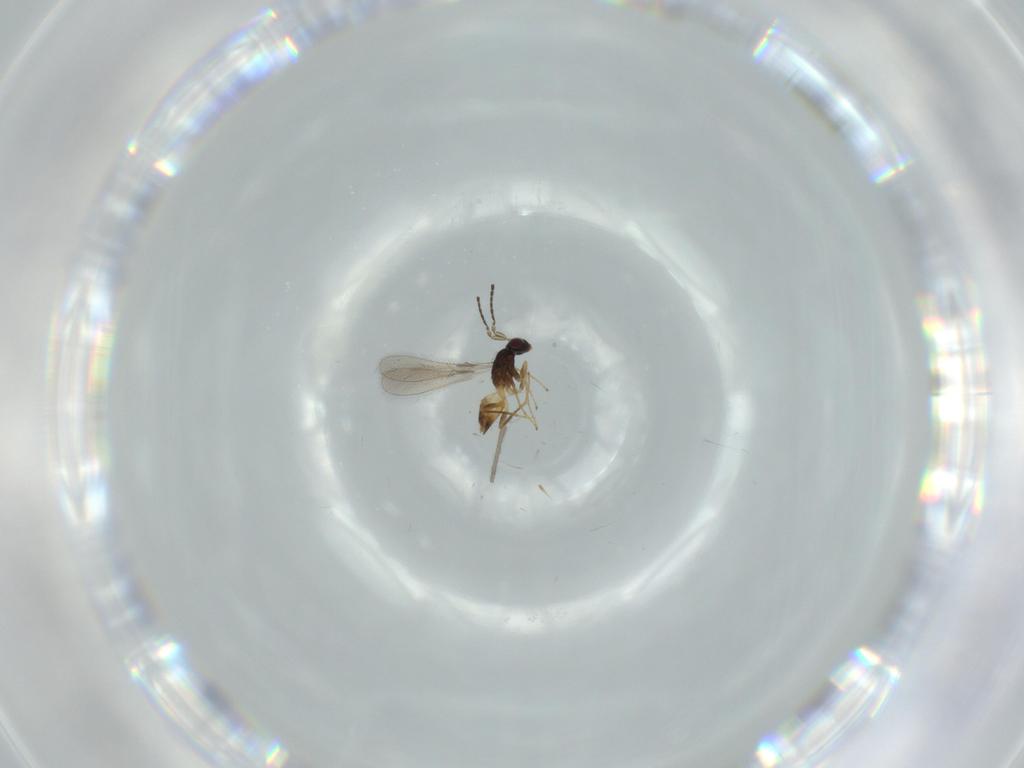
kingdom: Animalia
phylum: Arthropoda
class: Insecta
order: Hymenoptera
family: Mymaridae
